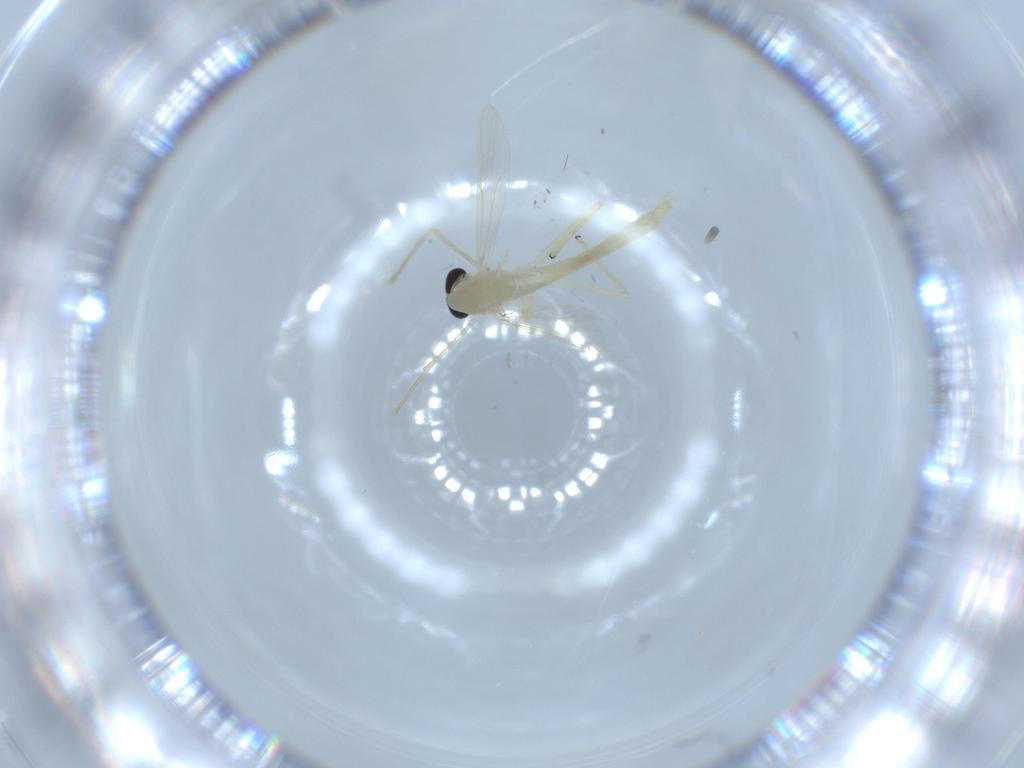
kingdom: Animalia
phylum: Arthropoda
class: Insecta
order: Diptera
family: Chironomidae
